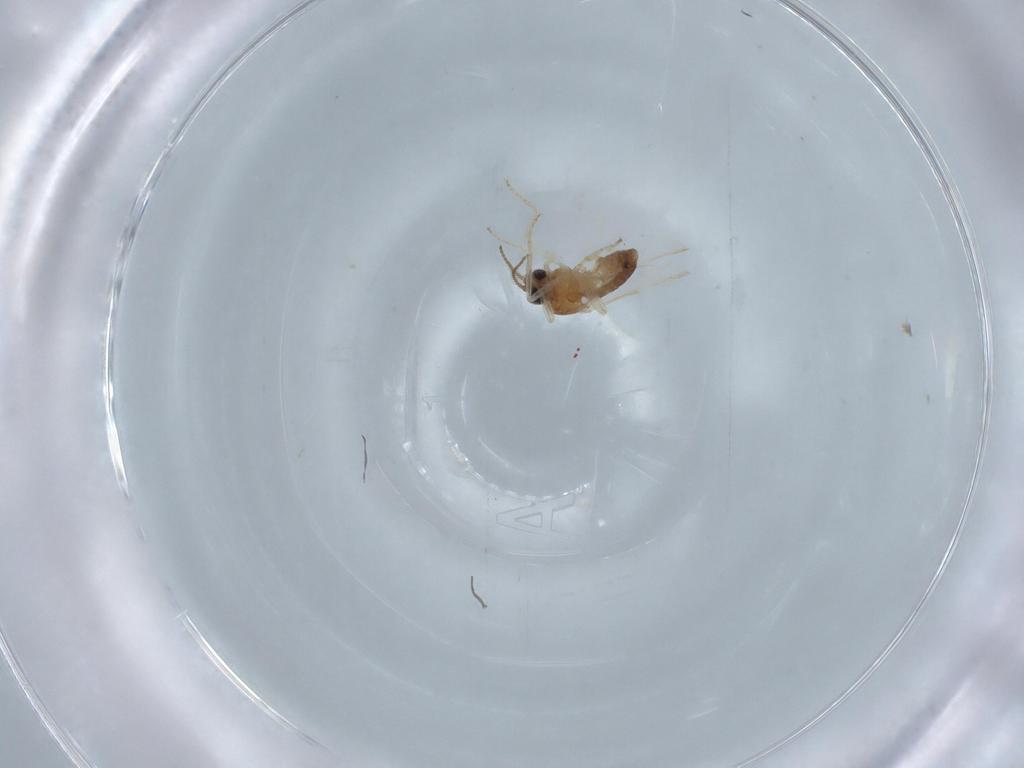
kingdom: Animalia
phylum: Arthropoda
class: Insecta
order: Diptera
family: Ceratopogonidae
